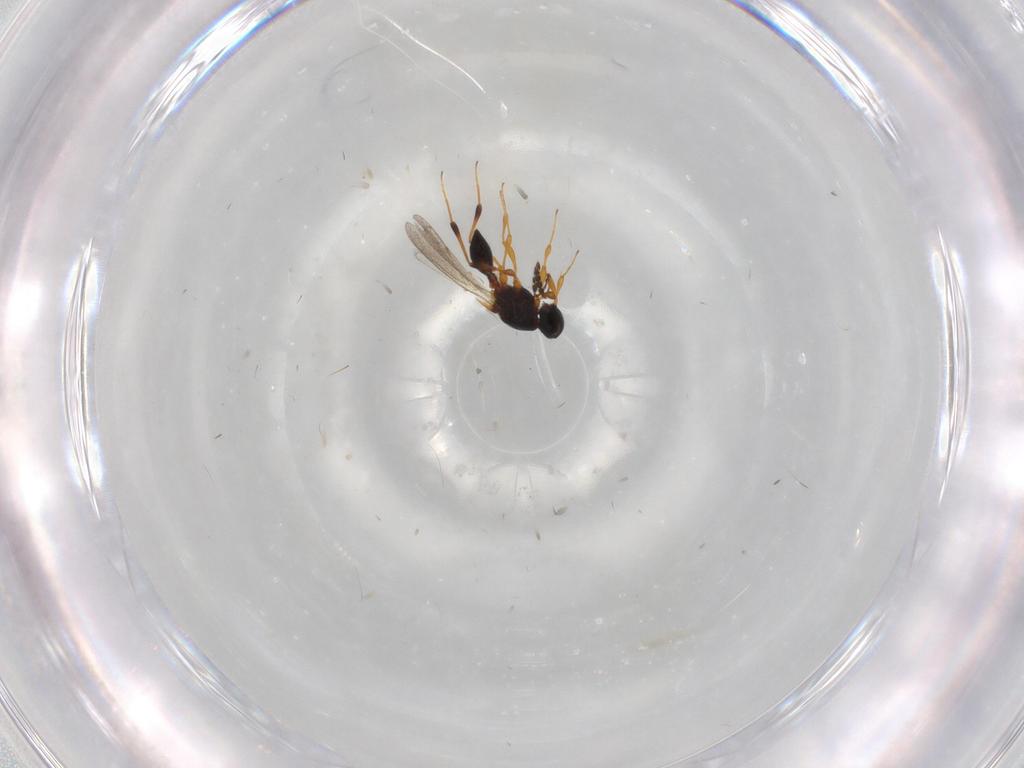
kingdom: Animalia
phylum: Arthropoda
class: Insecta
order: Hymenoptera
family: Platygastridae
